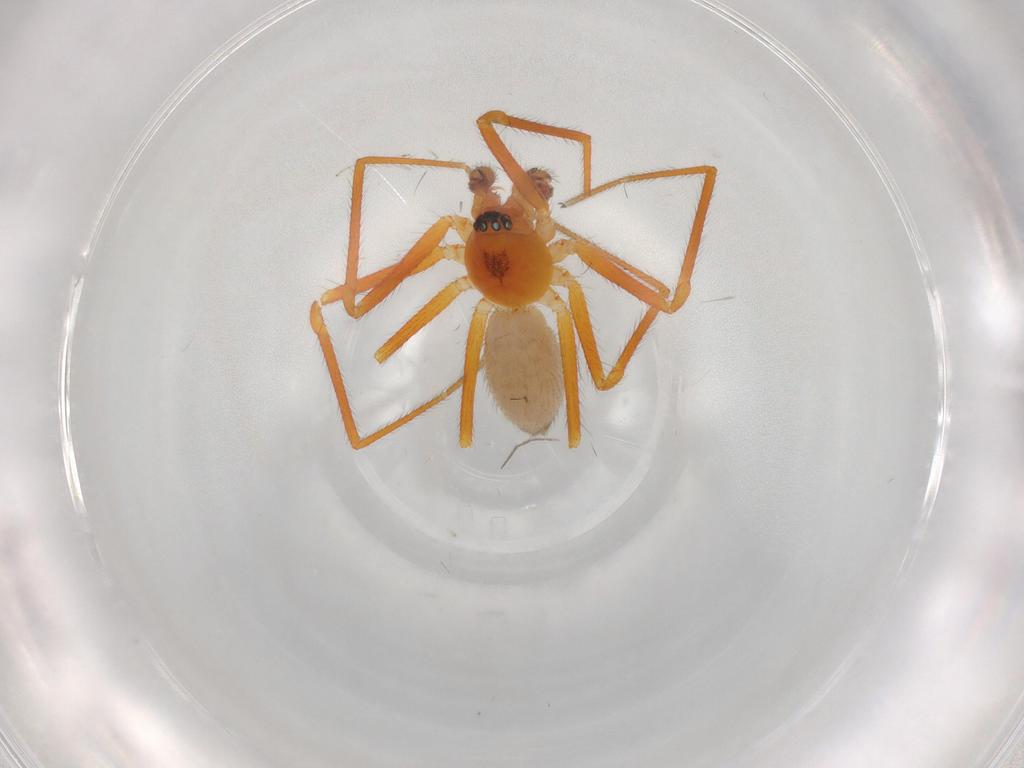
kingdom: Animalia
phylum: Arthropoda
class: Arachnida
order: Araneae
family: Linyphiidae
